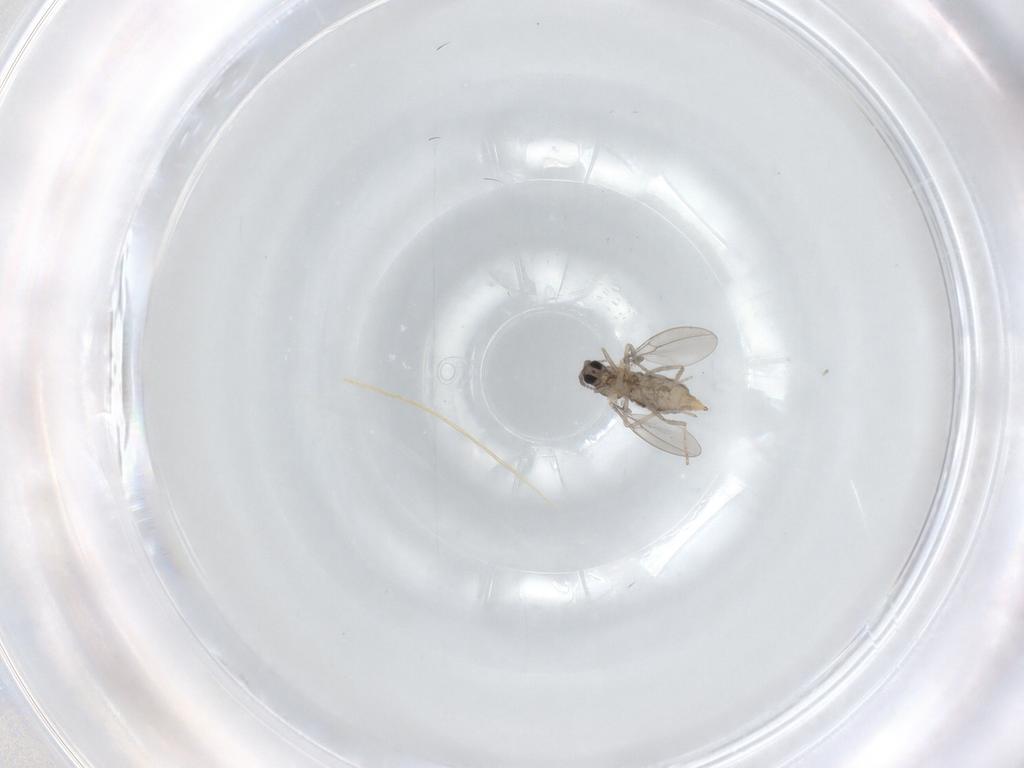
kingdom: Animalia
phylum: Arthropoda
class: Insecta
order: Diptera
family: Cecidomyiidae
